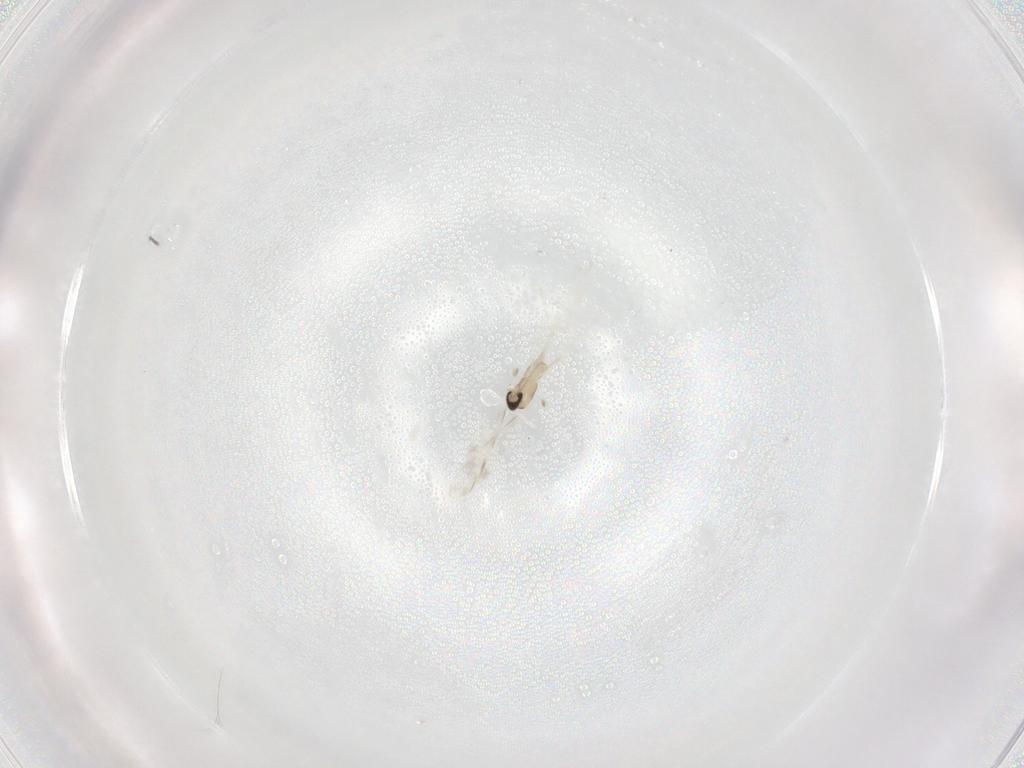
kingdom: Animalia
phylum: Arthropoda
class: Insecta
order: Diptera
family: Cecidomyiidae
